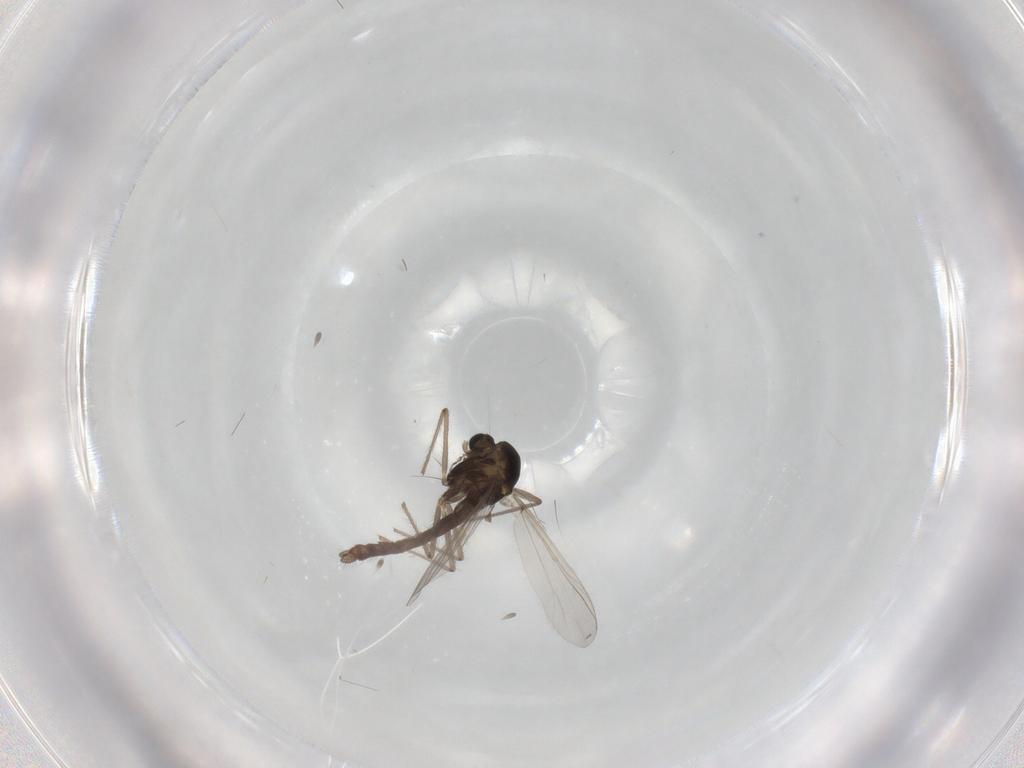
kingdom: Animalia
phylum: Arthropoda
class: Insecta
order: Diptera
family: Chironomidae
